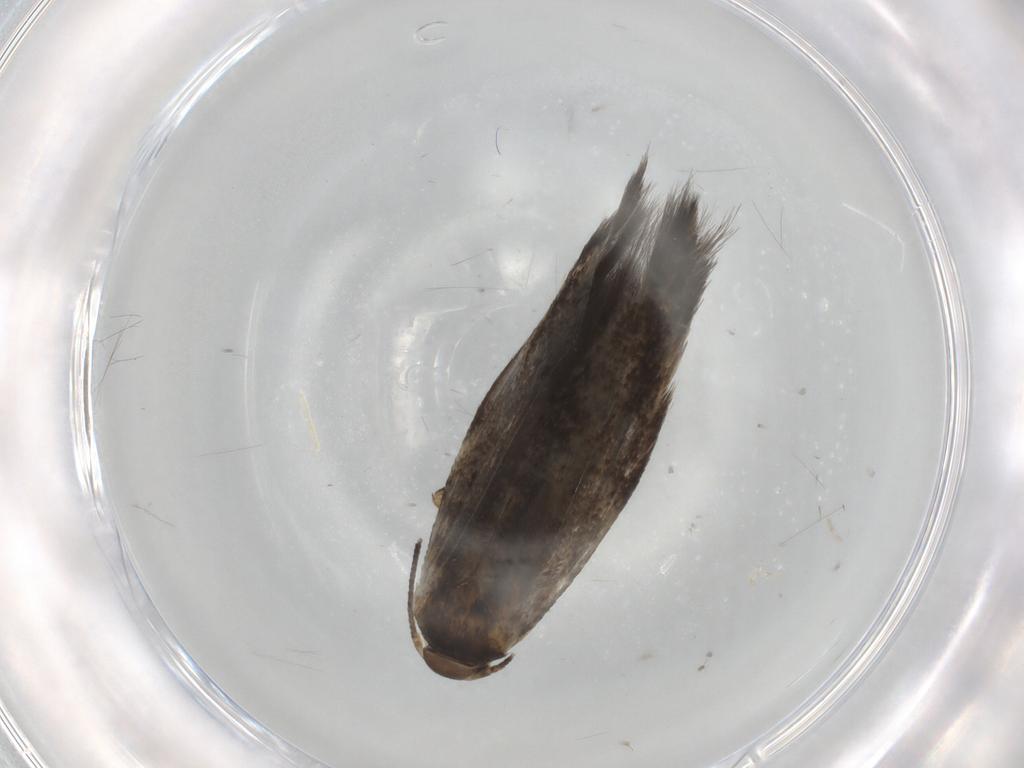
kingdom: Animalia
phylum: Arthropoda
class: Insecta
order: Lepidoptera
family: Elachistidae
